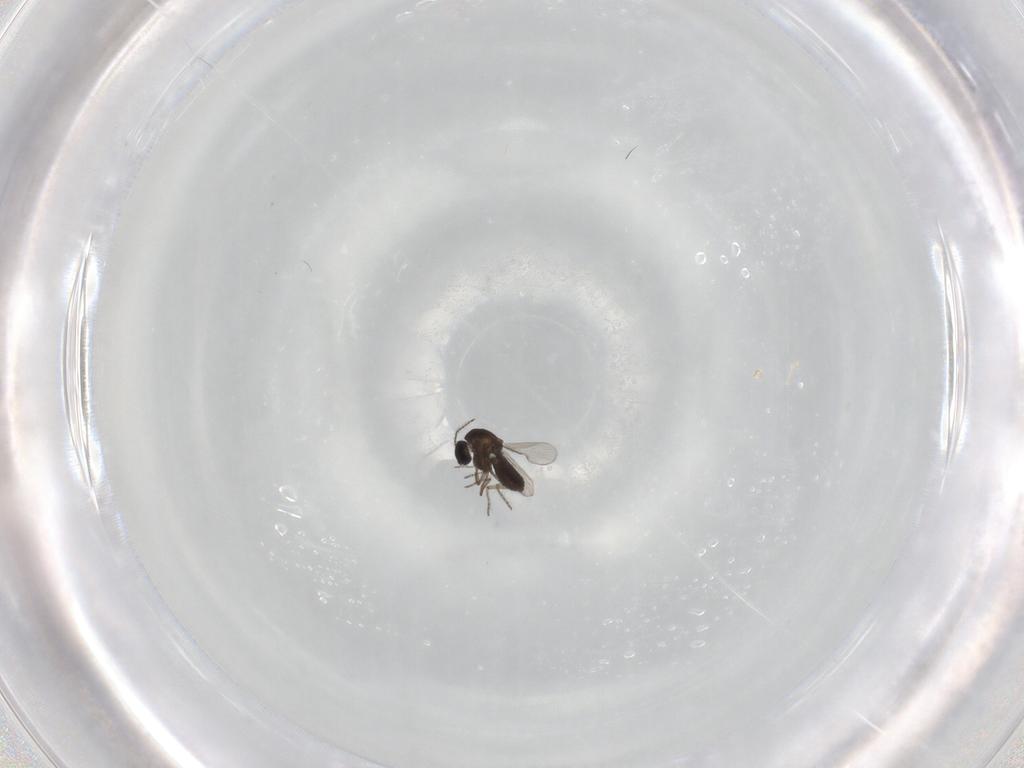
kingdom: Animalia
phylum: Arthropoda
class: Insecta
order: Diptera
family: Ceratopogonidae
